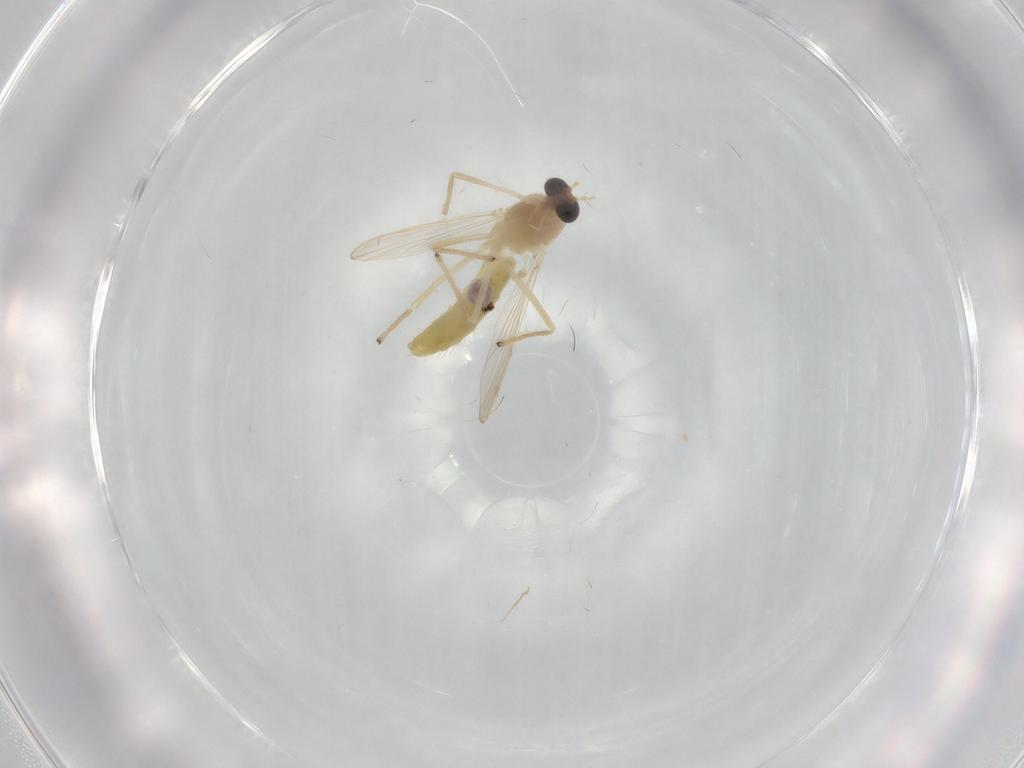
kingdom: Animalia
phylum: Arthropoda
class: Insecta
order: Diptera
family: Chironomidae
